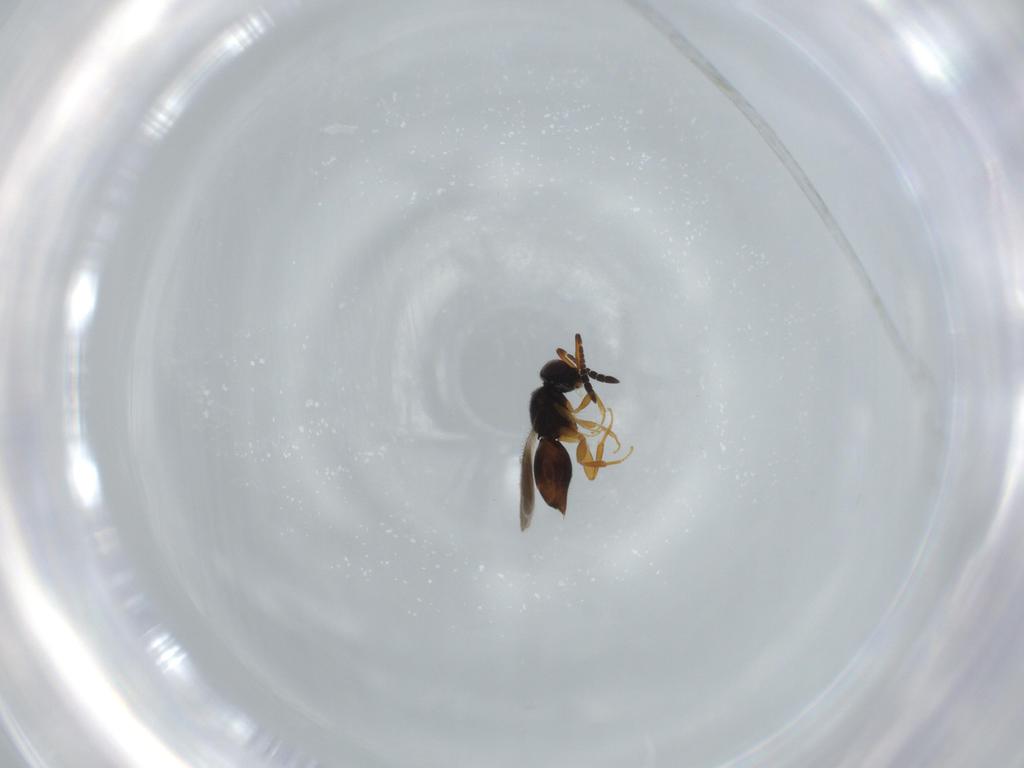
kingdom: Animalia
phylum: Arthropoda
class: Insecta
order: Hymenoptera
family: Ceraphronidae
